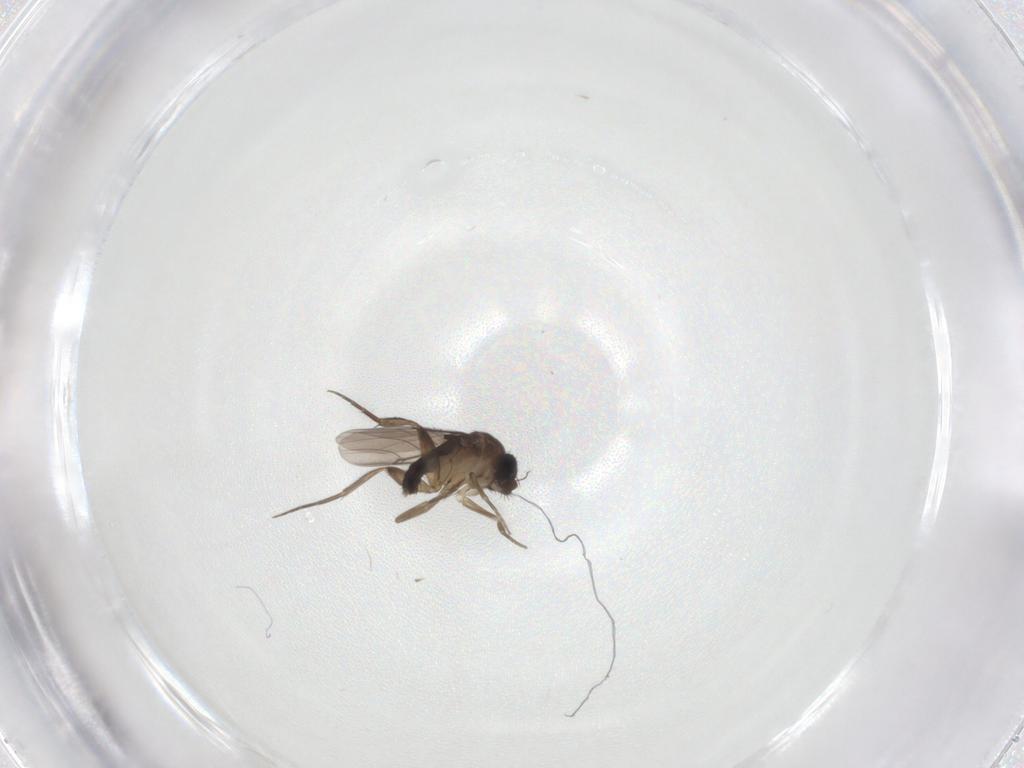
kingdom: Animalia
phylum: Arthropoda
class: Insecta
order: Diptera
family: Phoridae
